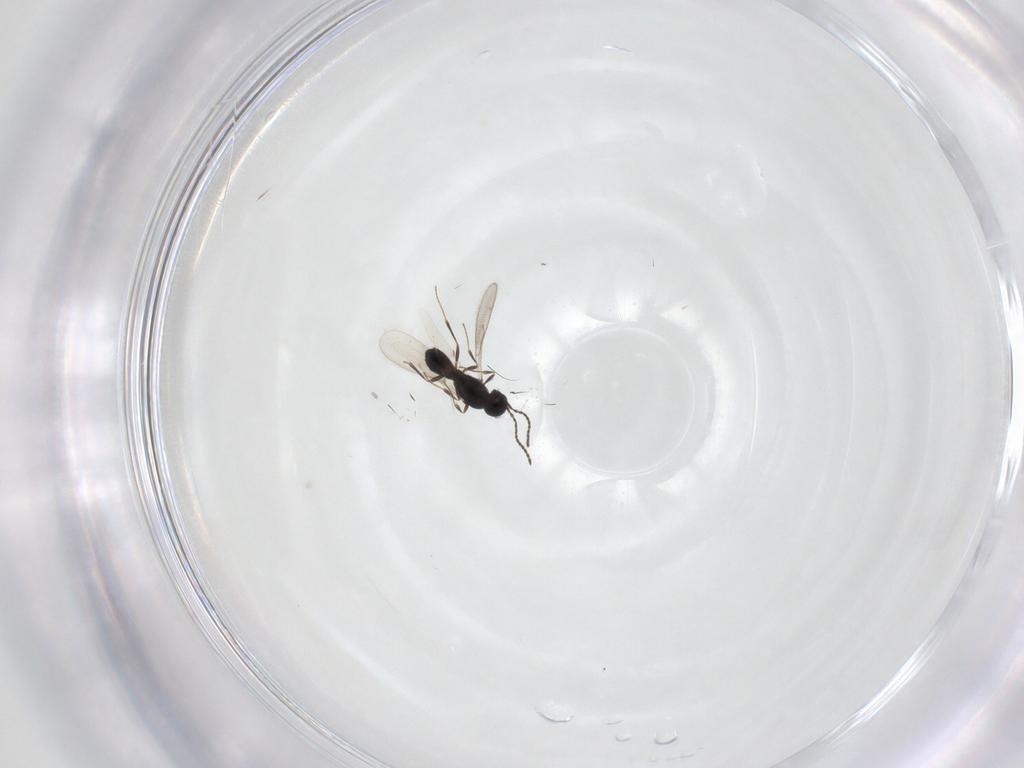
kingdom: Animalia
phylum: Arthropoda
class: Insecta
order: Hymenoptera
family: Scelionidae
